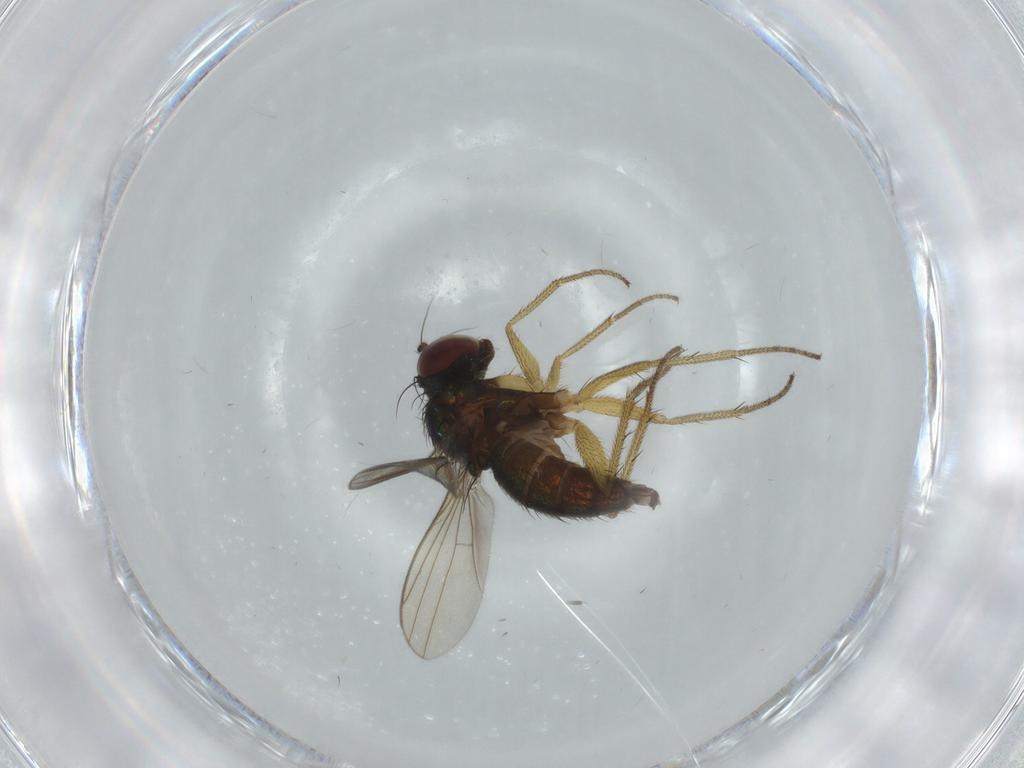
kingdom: Animalia
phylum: Arthropoda
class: Insecta
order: Diptera
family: Dolichopodidae
